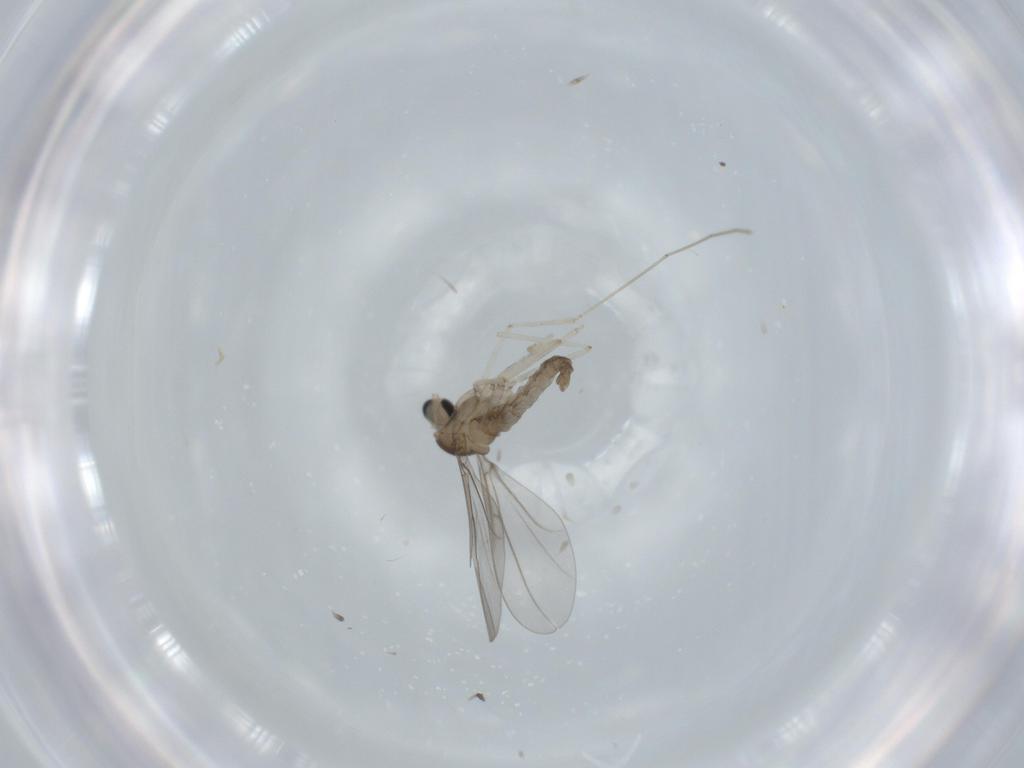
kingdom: Animalia
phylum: Arthropoda
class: Insecta
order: Diptera
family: Cecidomyiidae
